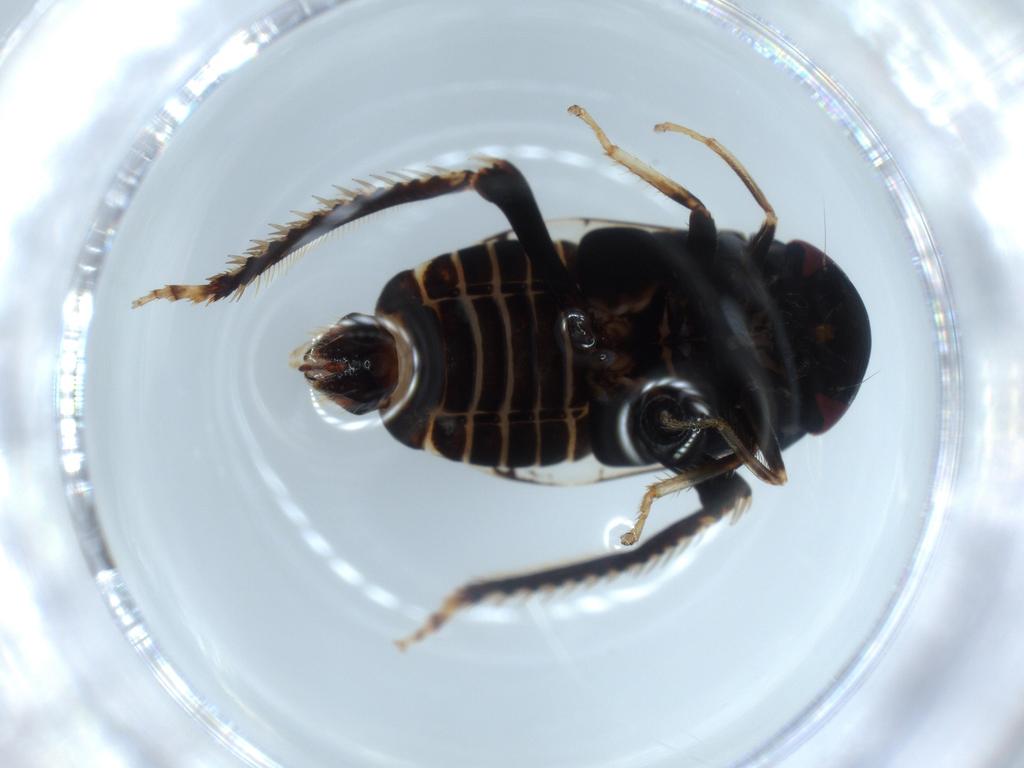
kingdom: Animalia
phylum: Arthropoda
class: Insecta
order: Hemiptera
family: Cicadellidae
